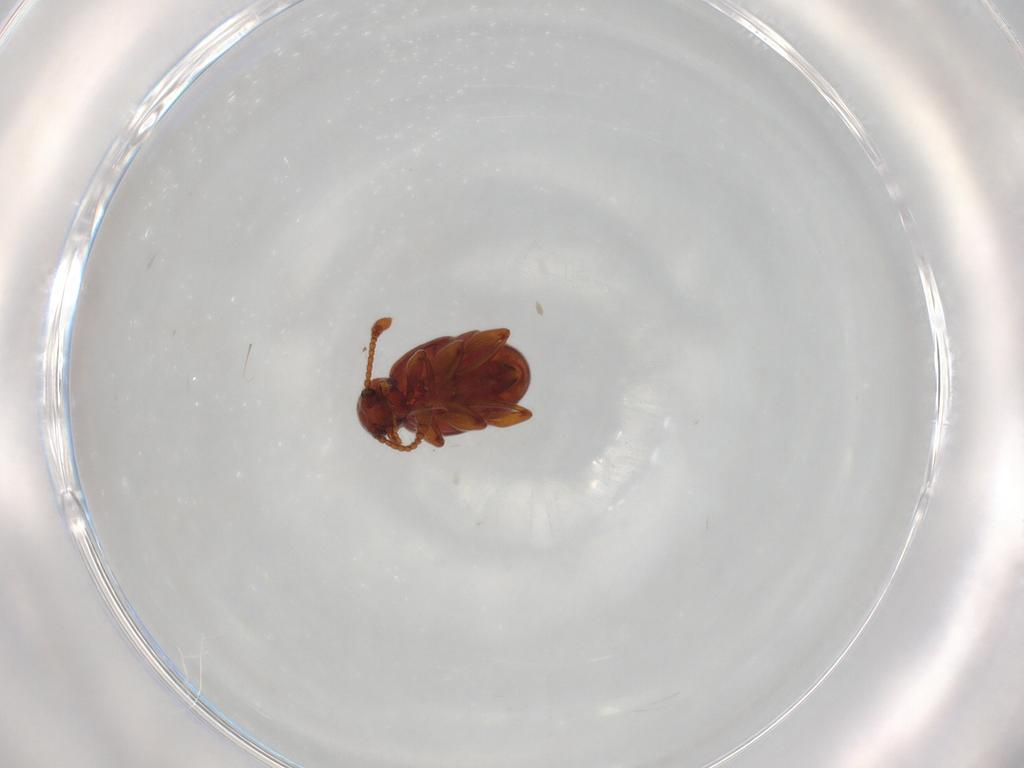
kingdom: Animalia
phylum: Arthropoda
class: Insecta
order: Coleoptera
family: Staphylinidae
